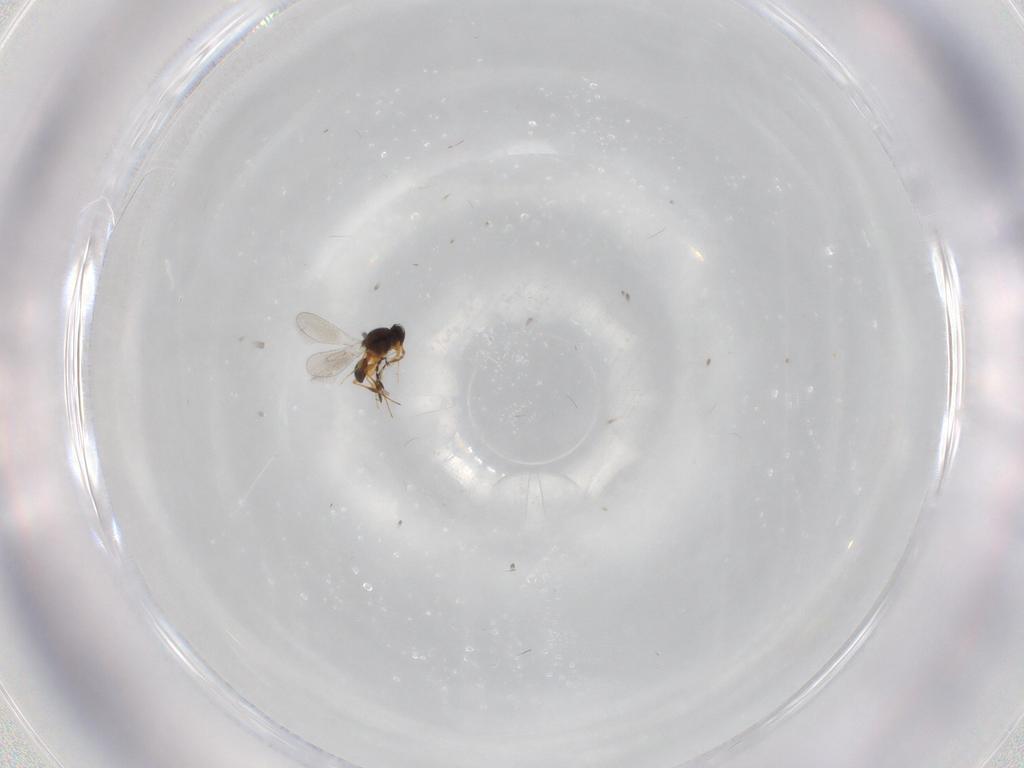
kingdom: Animalia
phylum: Arthropoda
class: Insecta
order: Hymenoptera
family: Platygastridae
